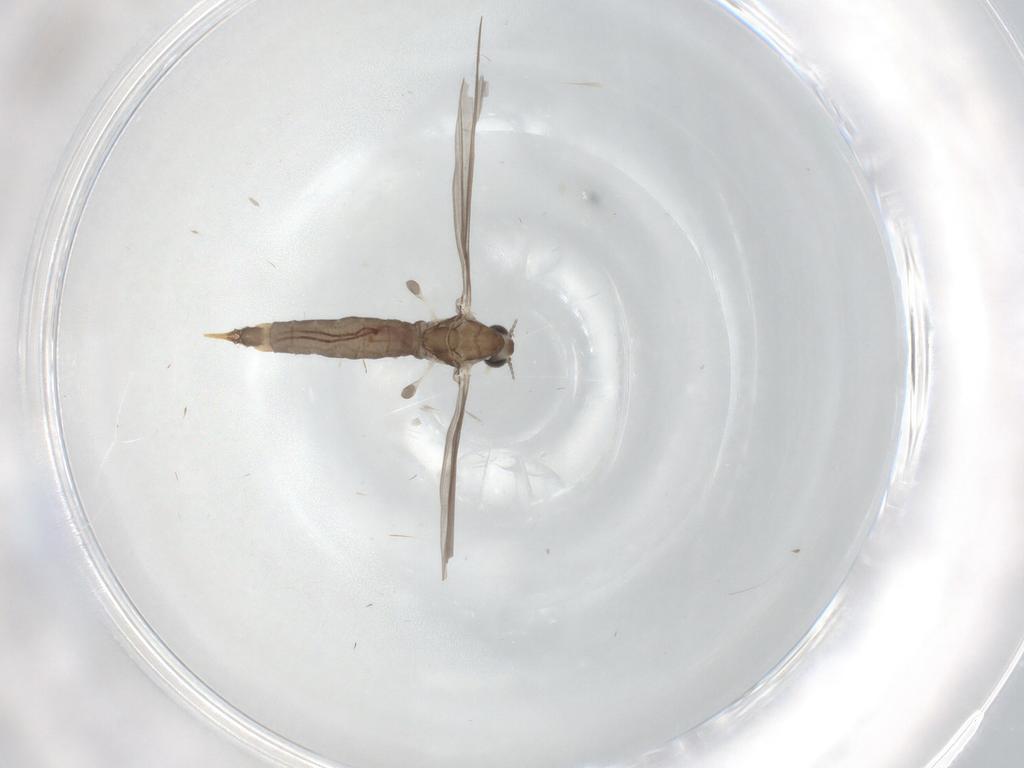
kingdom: Animalia
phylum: Arthropoda
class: Insecta
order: Diptera
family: Limoniidae
